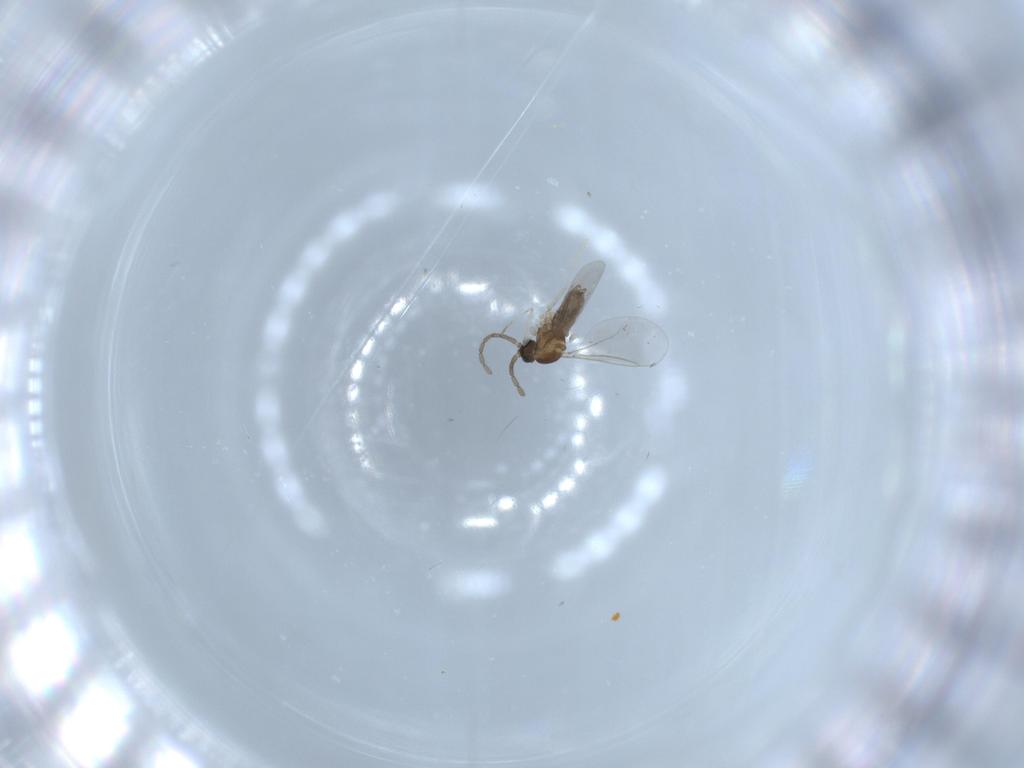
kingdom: Animalia
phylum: Arthropoda
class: Insecta
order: Diptera
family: Cecidomyiidae
